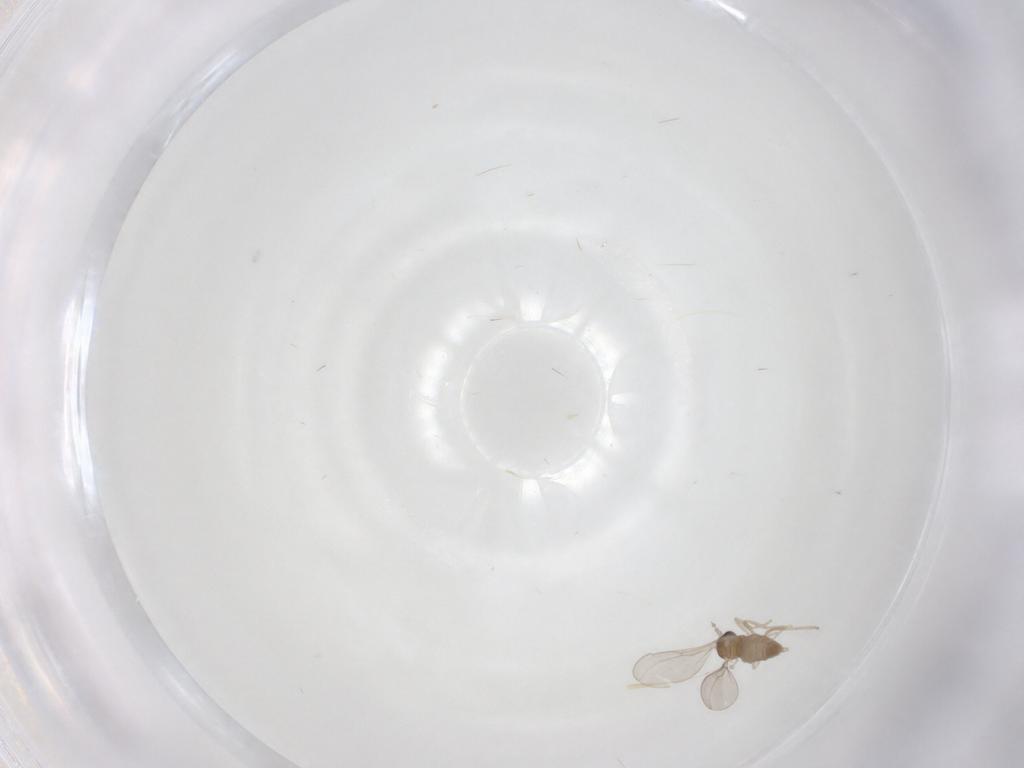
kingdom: Animalia
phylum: Arthropoda
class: Insecta
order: Diptera
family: Cecidomyiidae
